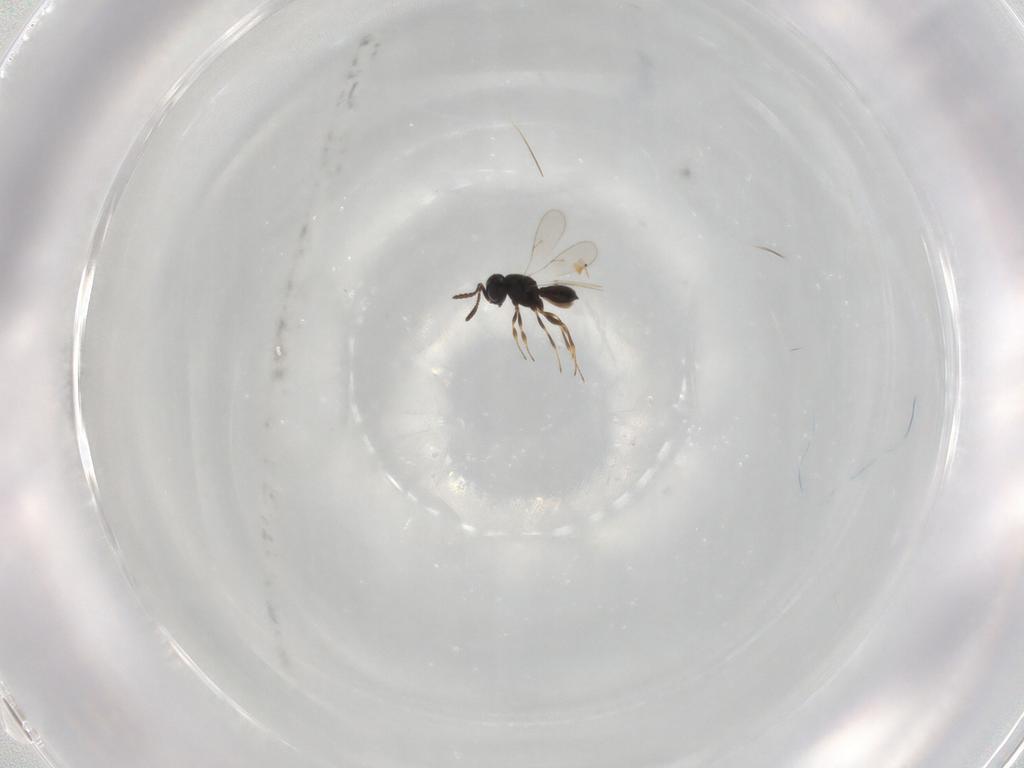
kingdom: Animalia
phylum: Arthropoda
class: Insecta
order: Hymenoptera
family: Scelionidae
